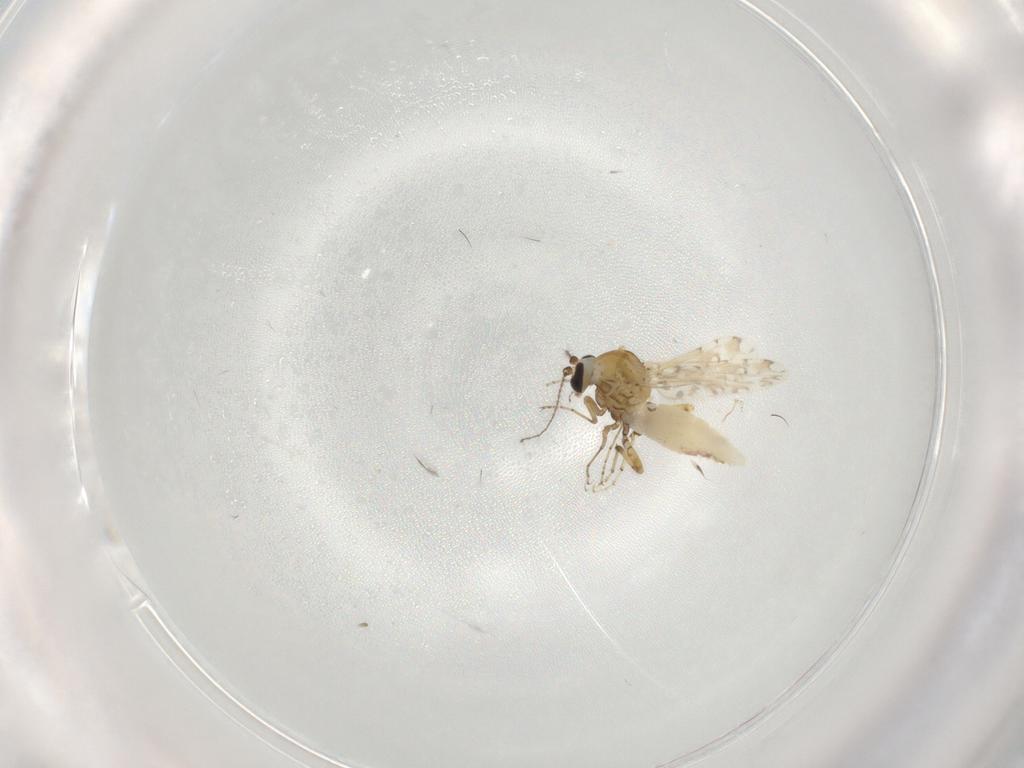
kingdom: Animalia
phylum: Arthropoda
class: Insecta
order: Diptera
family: Ceratopogonidae
